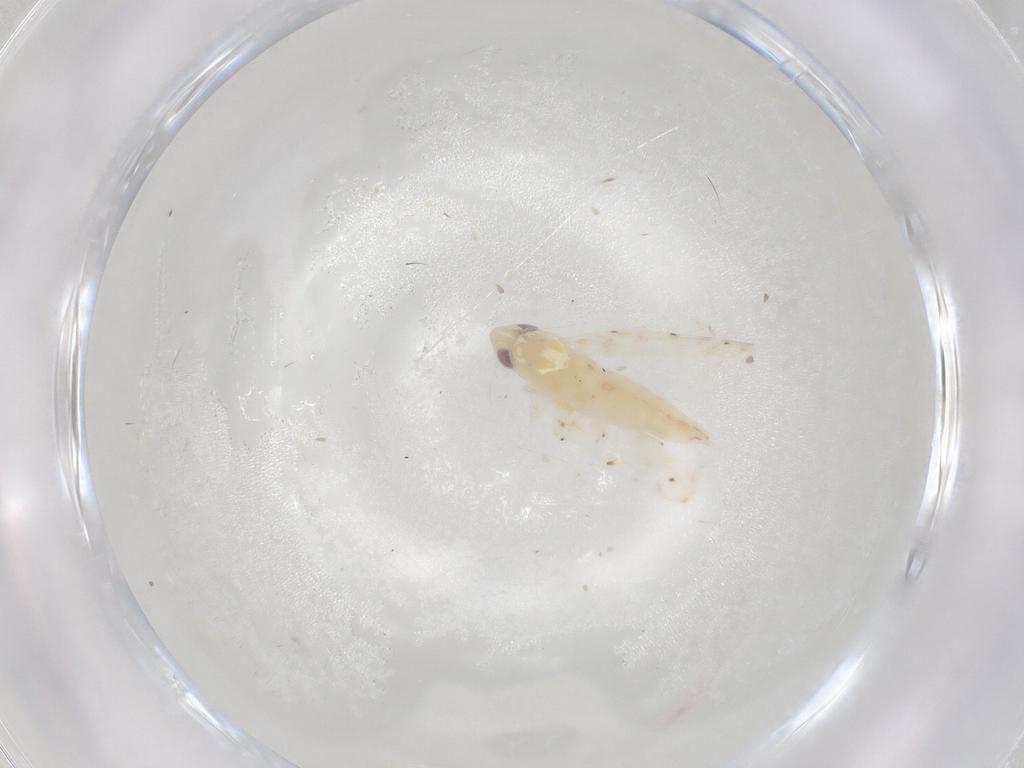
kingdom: Animalia
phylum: Arthropoda
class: Insecta
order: Hemiptera
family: Cicadellidae
